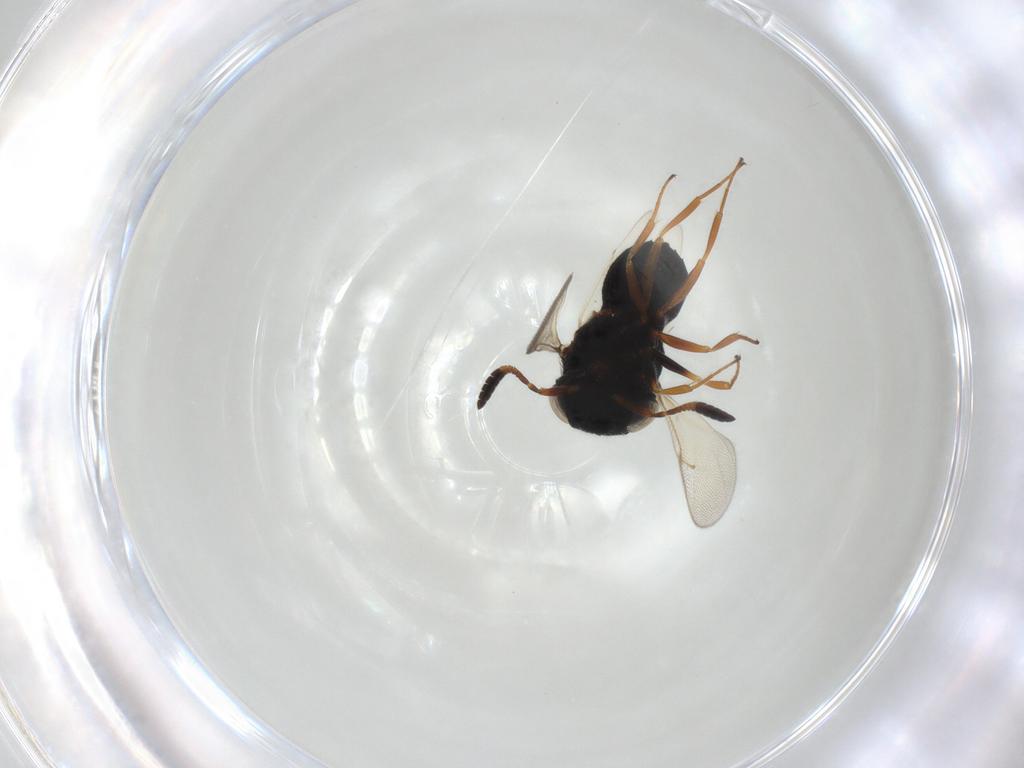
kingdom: Animalia
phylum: Arthropoda
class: Insecta
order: Hymenoptera
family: Scelionidae
